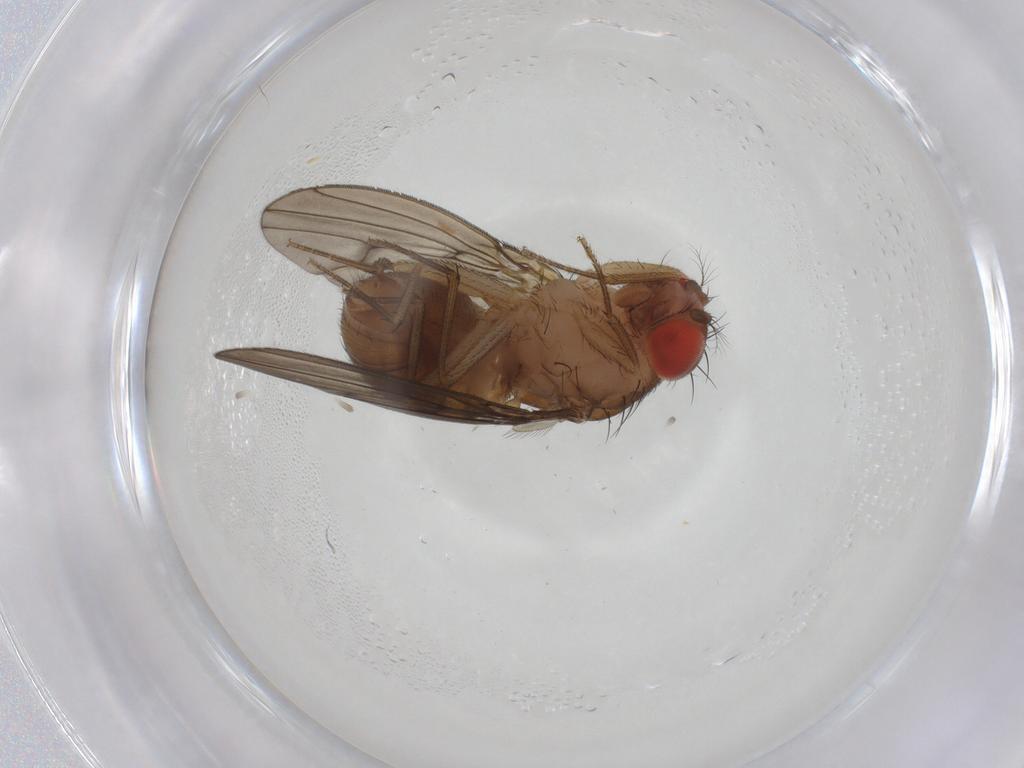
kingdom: Animalia
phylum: Arthropoda
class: Insecta
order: Diptera
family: Drosophilidae
